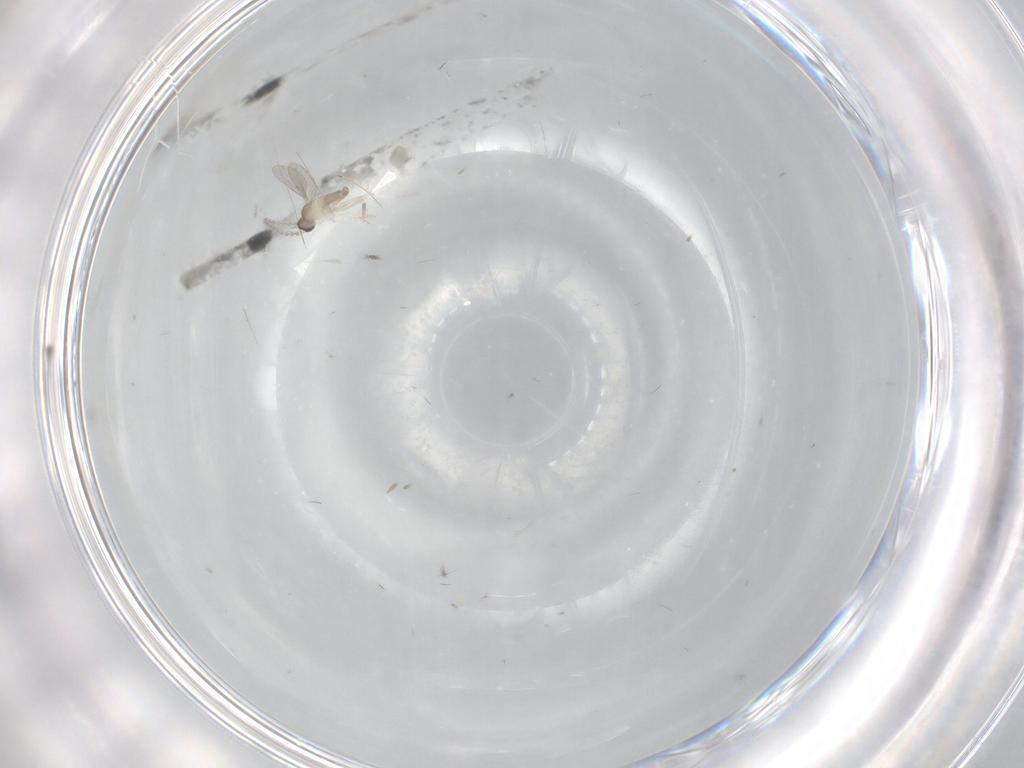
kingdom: Animalia
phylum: Arthropoda
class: Insecta
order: Diptera
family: Cecidomyiidae
